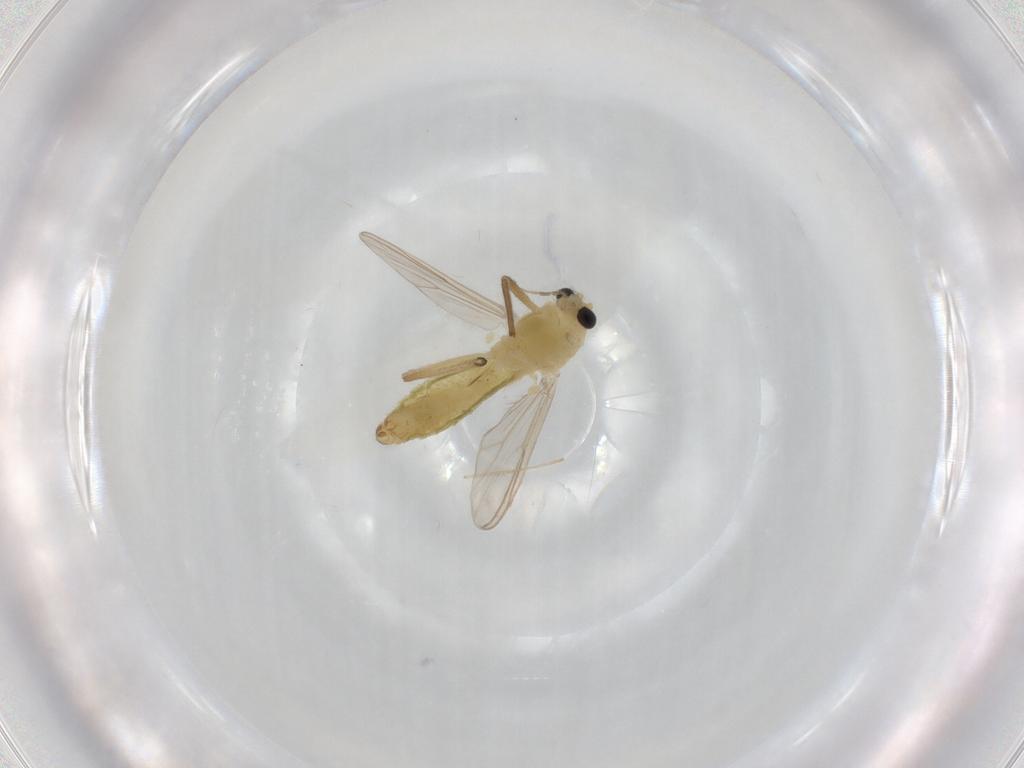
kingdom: Animalia
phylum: Arthropoda
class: Insecta
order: Diptera
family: Chironomidae
